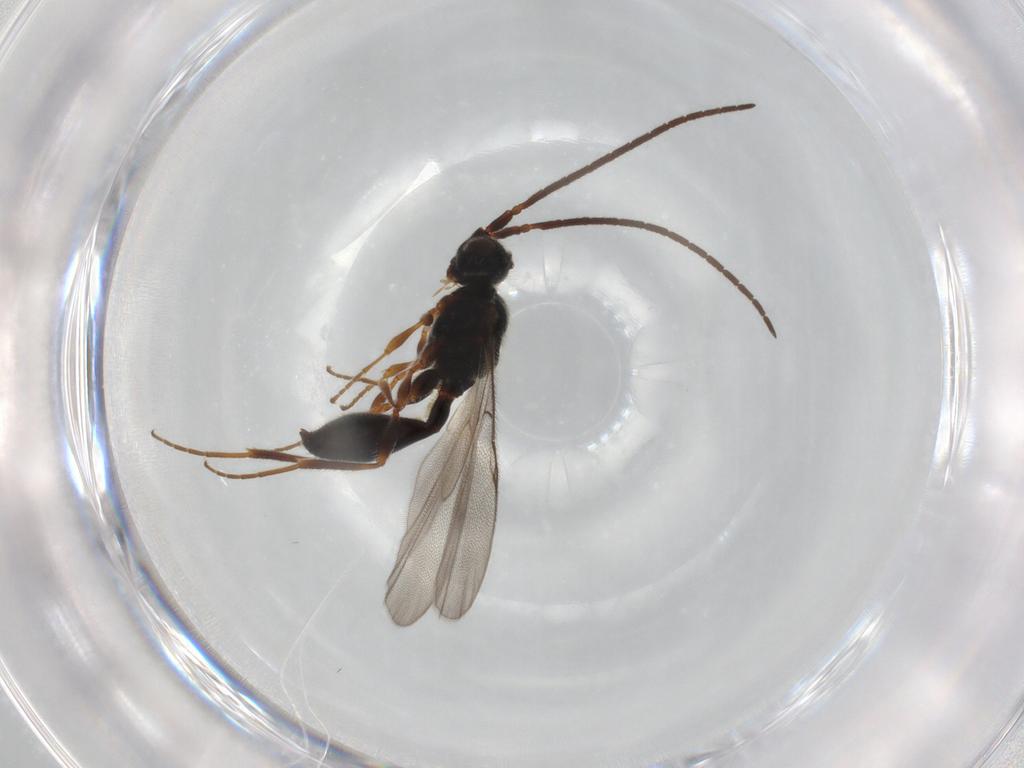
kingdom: Animalia
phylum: Arthropoda
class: Insecta
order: Hymenoptera
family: Diapriidae
